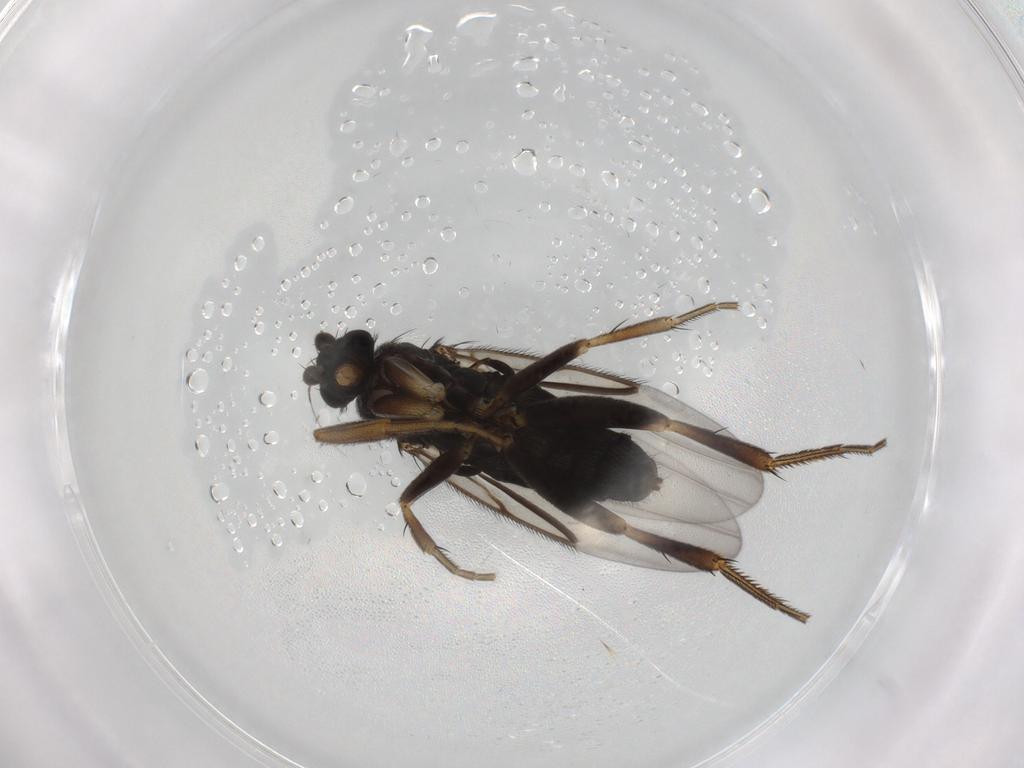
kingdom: Animalia
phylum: Arthropoda
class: Insecta
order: Diptera
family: Phoridae
